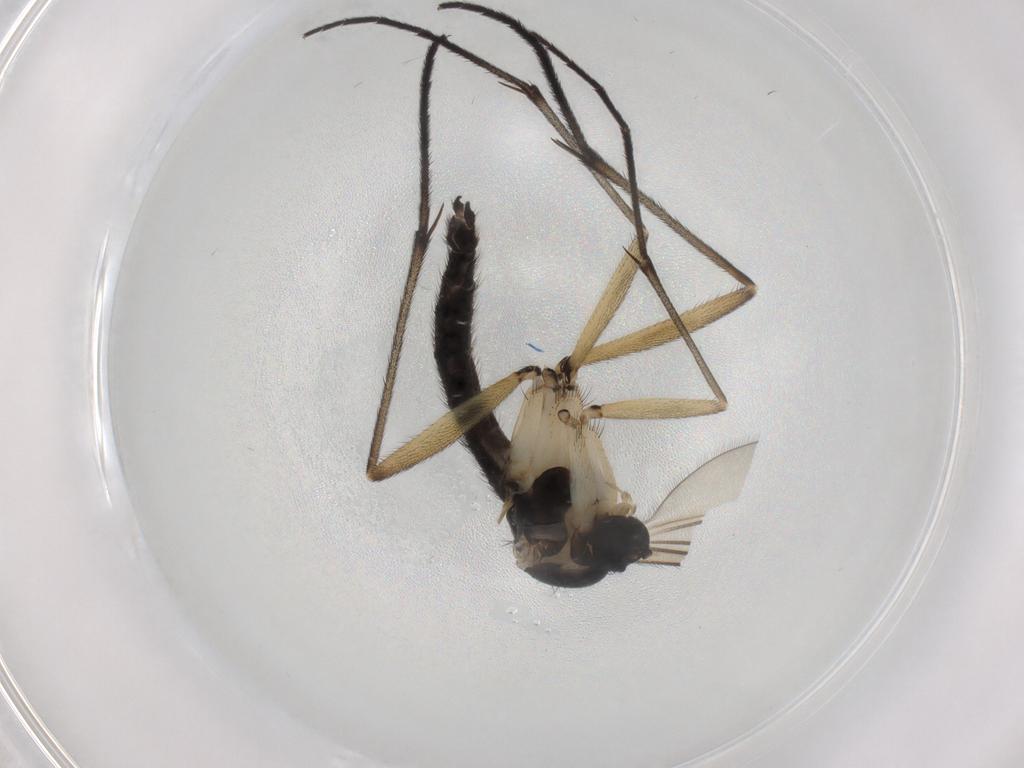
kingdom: Animalia
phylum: Arthropoda
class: Insecta
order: Diptera
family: Sciaridae
